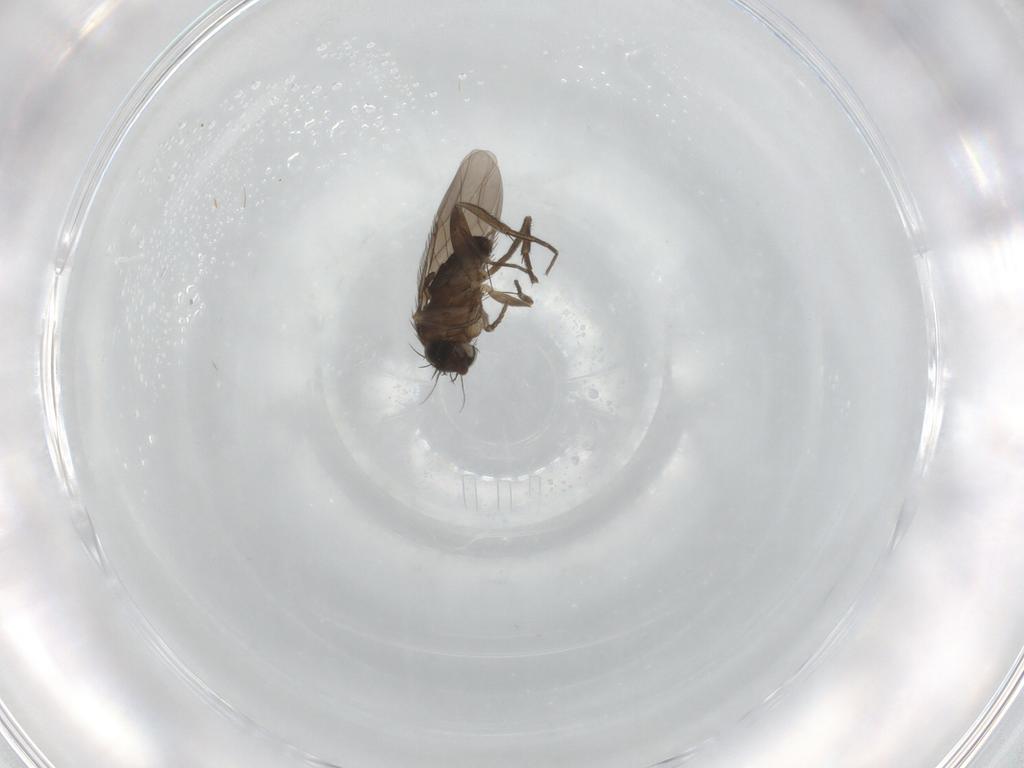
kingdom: Animalia
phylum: Arthropoda
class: Insecta
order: Diptera
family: Phoridae
